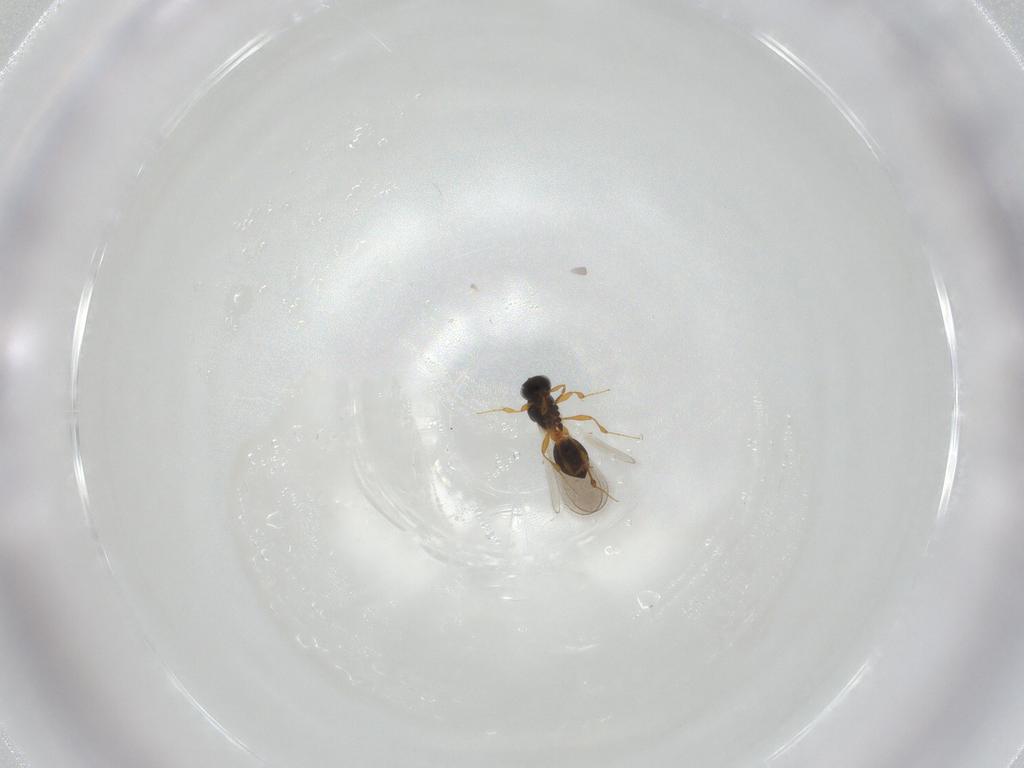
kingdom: Animalia
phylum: Arthropoda
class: Insecta
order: Hymenoptera
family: Platygastridae
